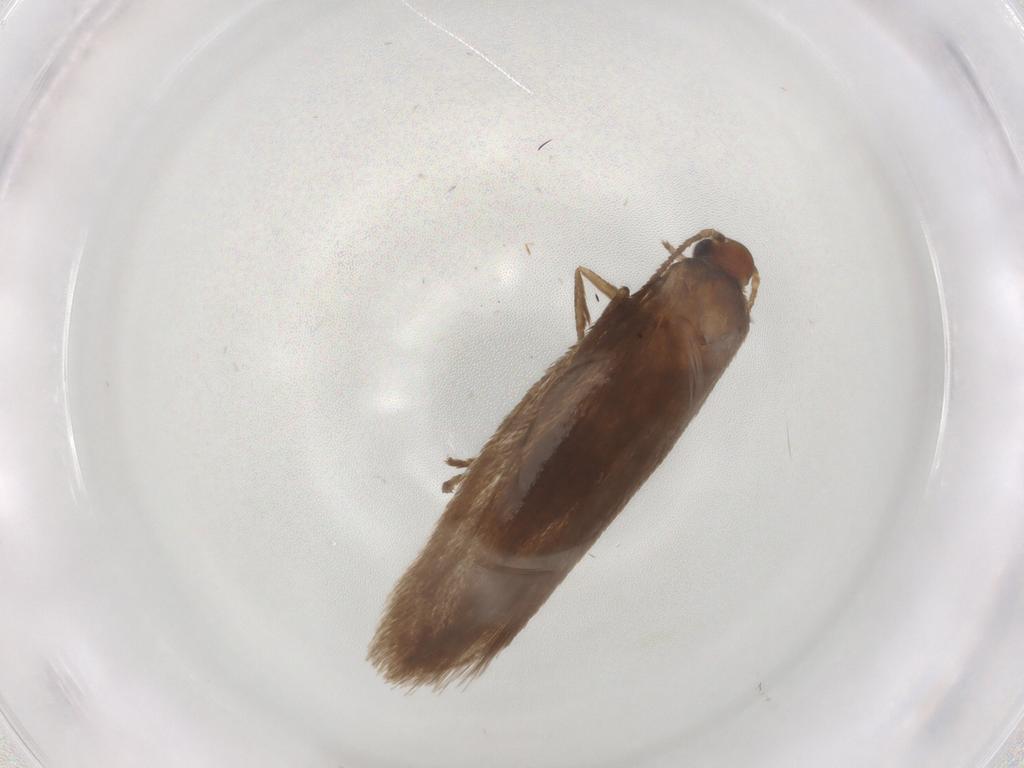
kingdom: Animalia
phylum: Arthropoda
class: Insecta
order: Lepidoptera
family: Limacodidae
